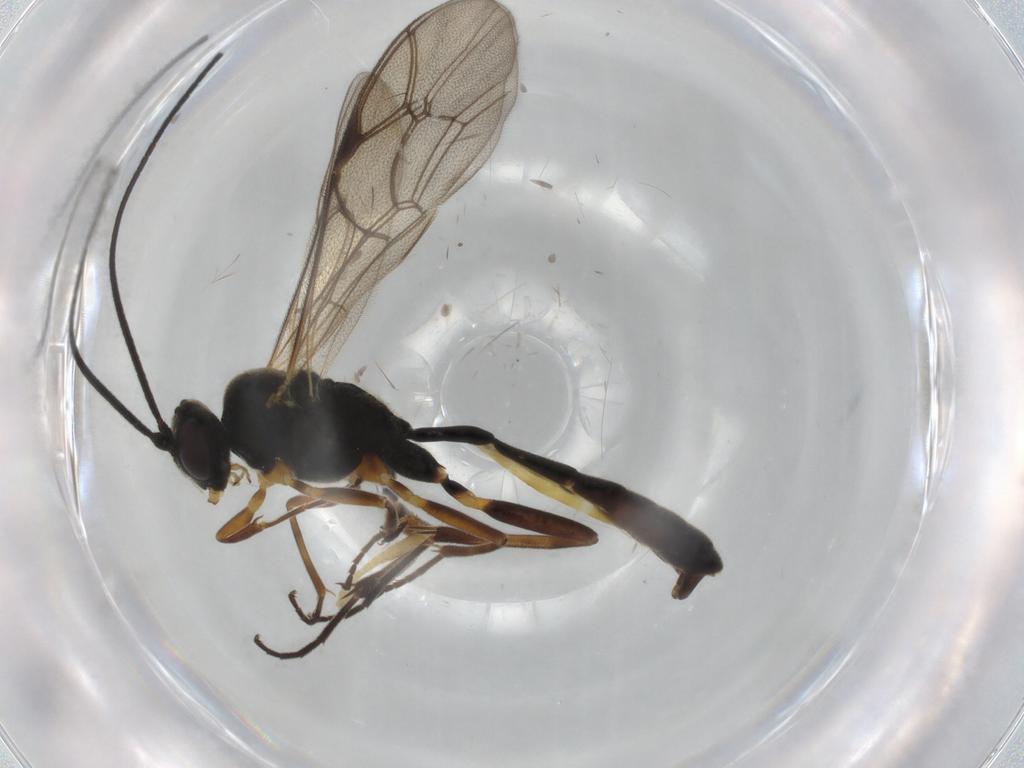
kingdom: Animalia
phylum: Arthropoda
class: Insecta
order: Hymenoptera
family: Ichneumonidae
